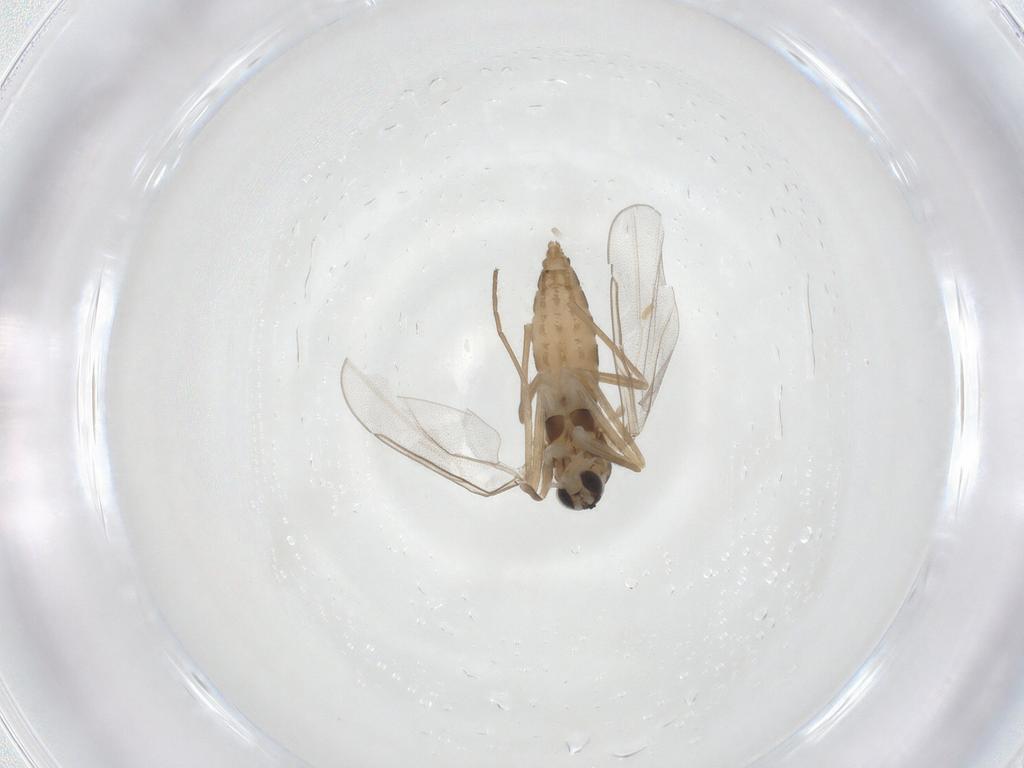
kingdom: Animalia
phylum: Arthropoda
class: Insecta
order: Diptera
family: Cecidomyiidae
